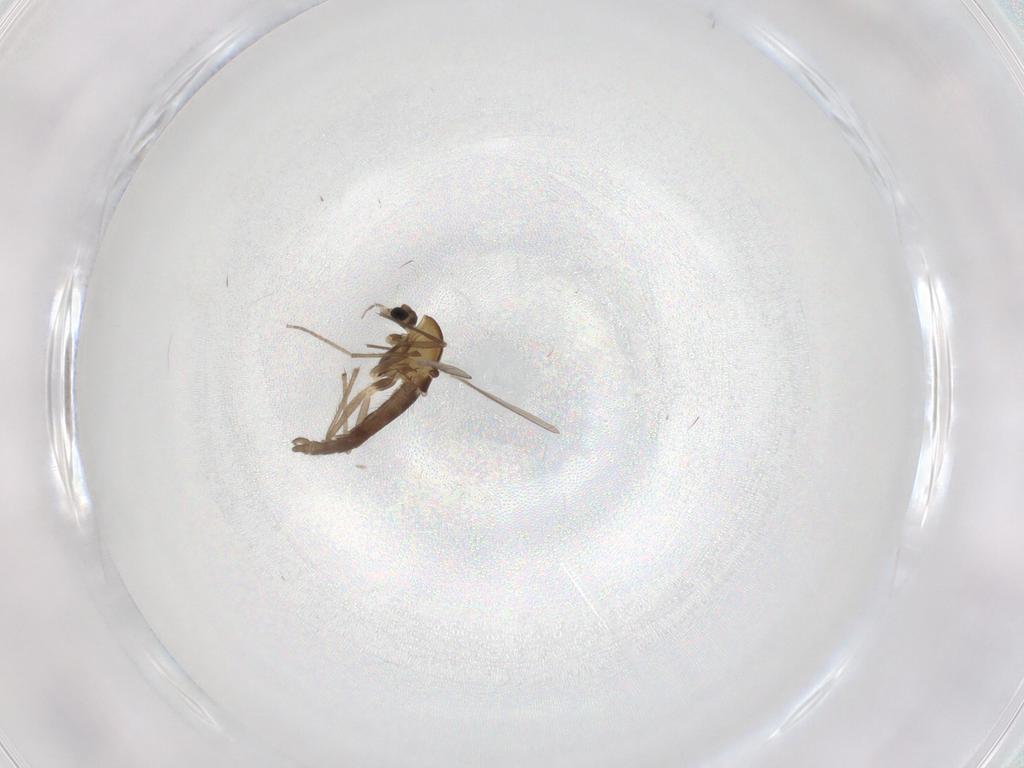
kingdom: Animalia
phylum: Arthropoda
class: Insecta
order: Diptera
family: Chironomidae
